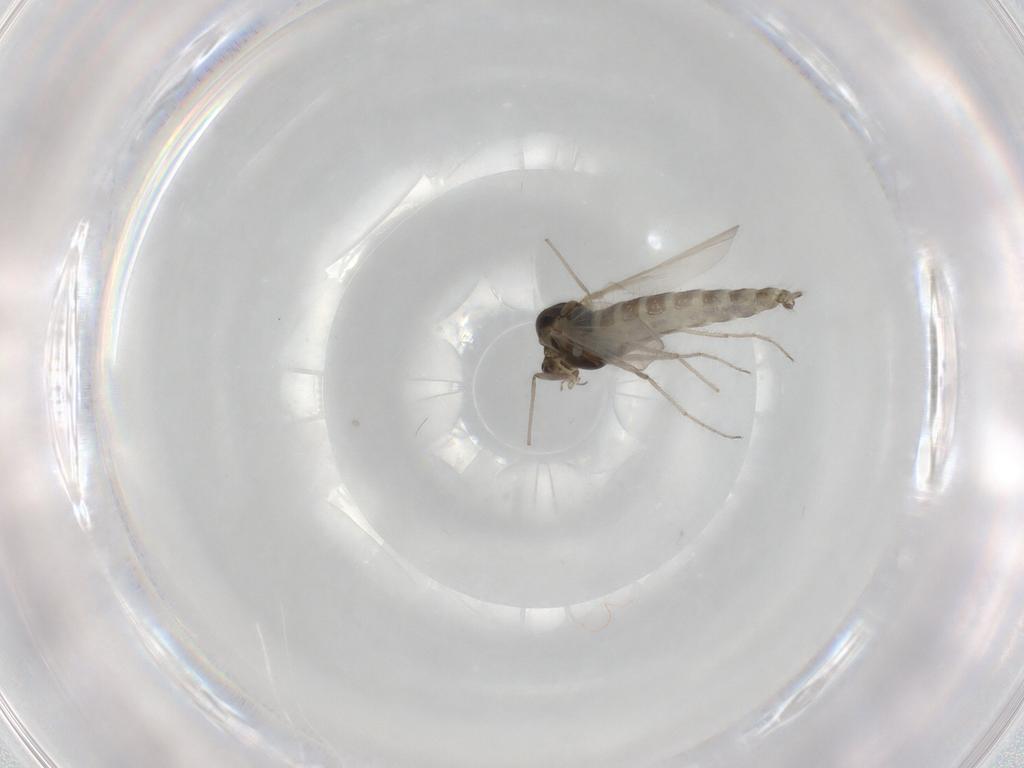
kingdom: Animalia
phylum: Arthropoda
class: Insecta
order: Diptera
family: Chironomidae
